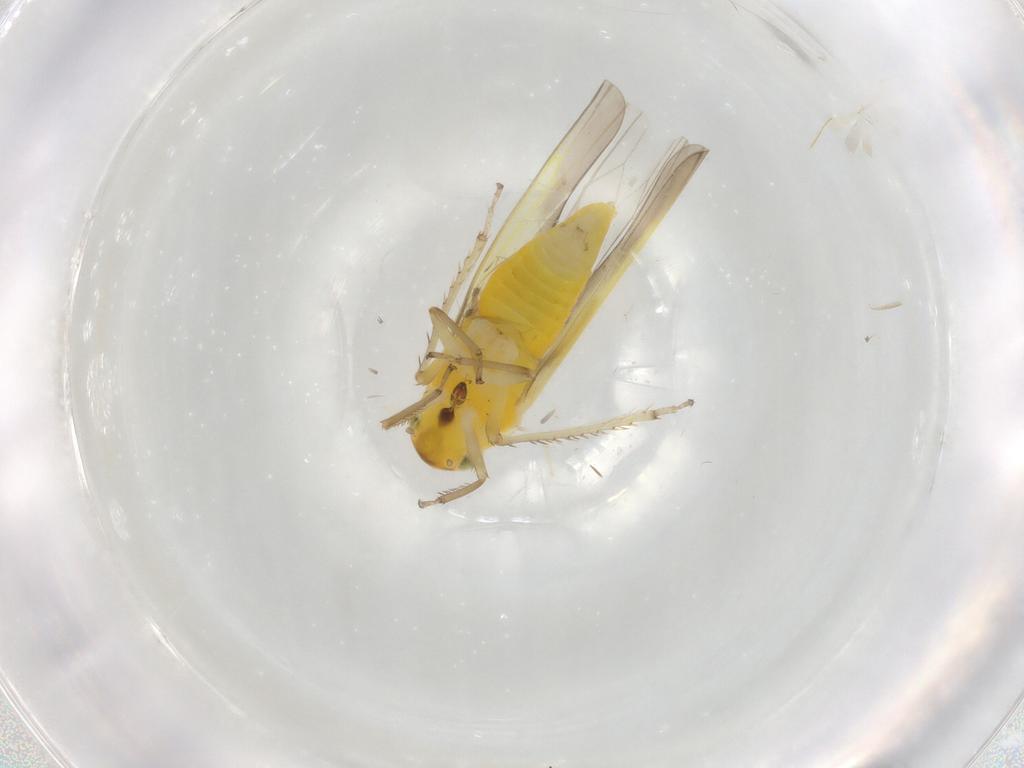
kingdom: Animalia
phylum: Arthropoda
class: Insecta
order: Hemiptera
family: Cicadellidae
